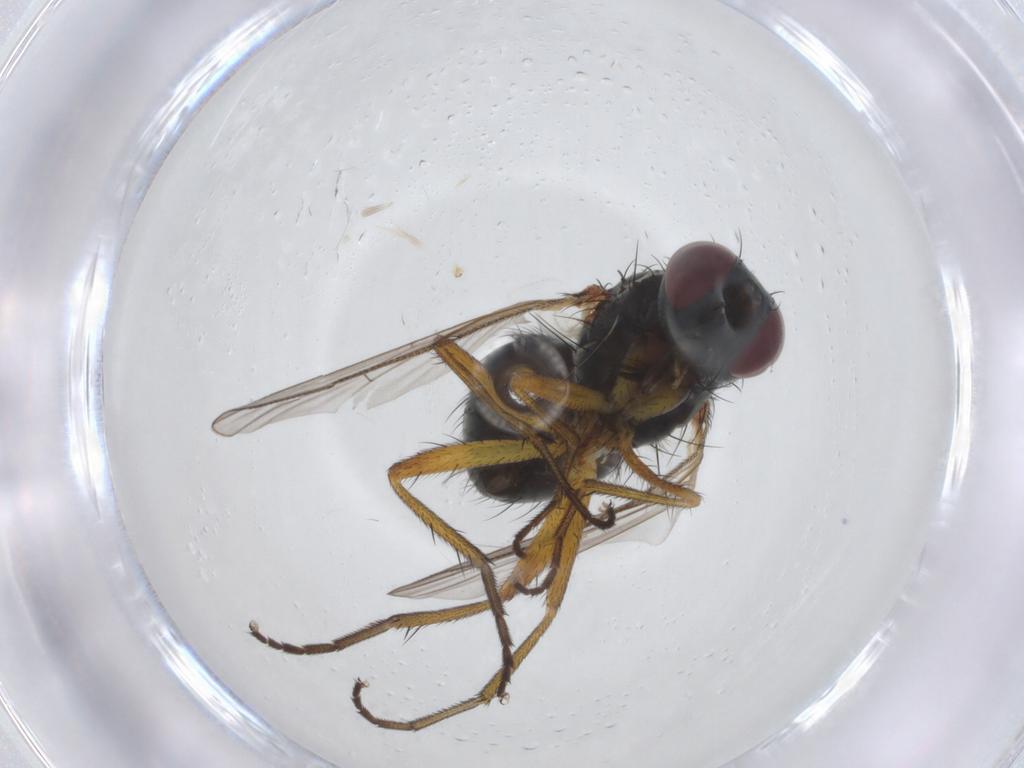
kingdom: Animalia
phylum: Arthropoda
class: Insecta
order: Diptera
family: Muscidae
